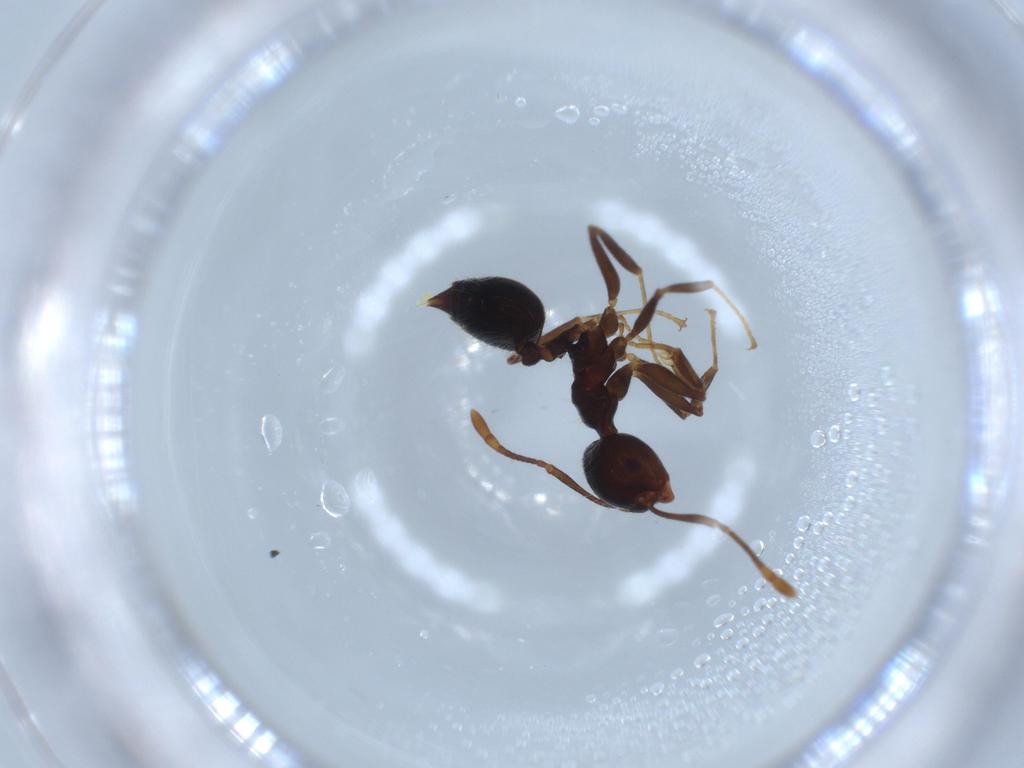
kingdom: Animalia
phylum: Arthropoda
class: Insecta
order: Hymenoptera
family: Formicidae
